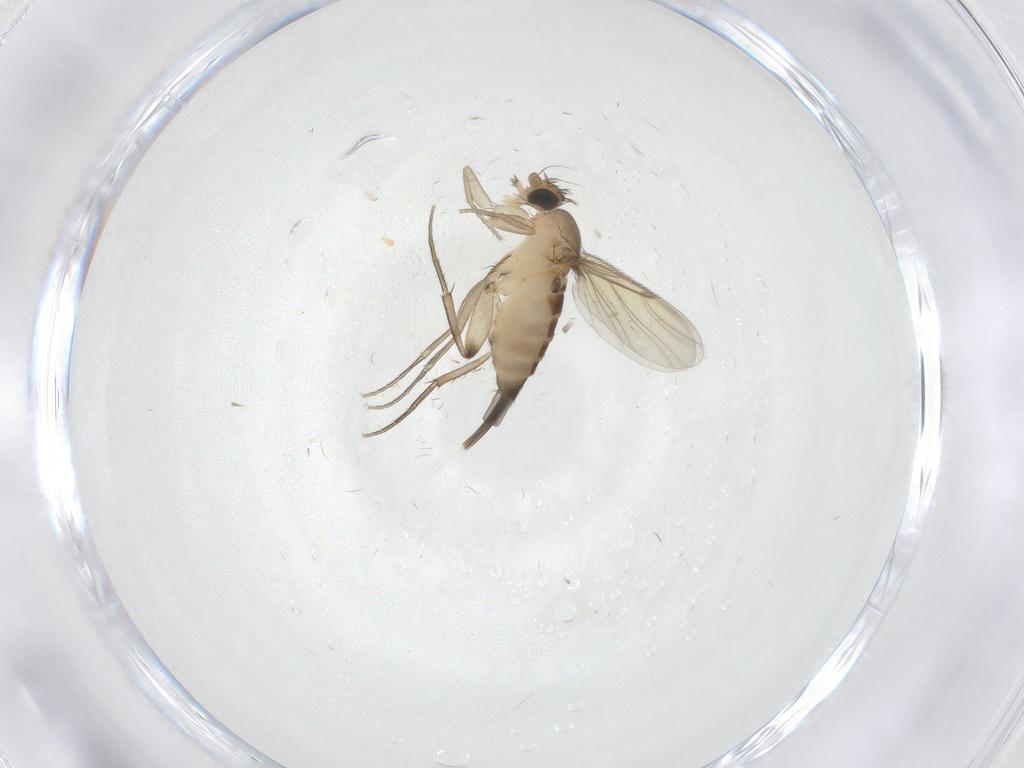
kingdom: Animalia
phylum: Arthropoda
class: Insecta
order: Diptera
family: Phoridae
